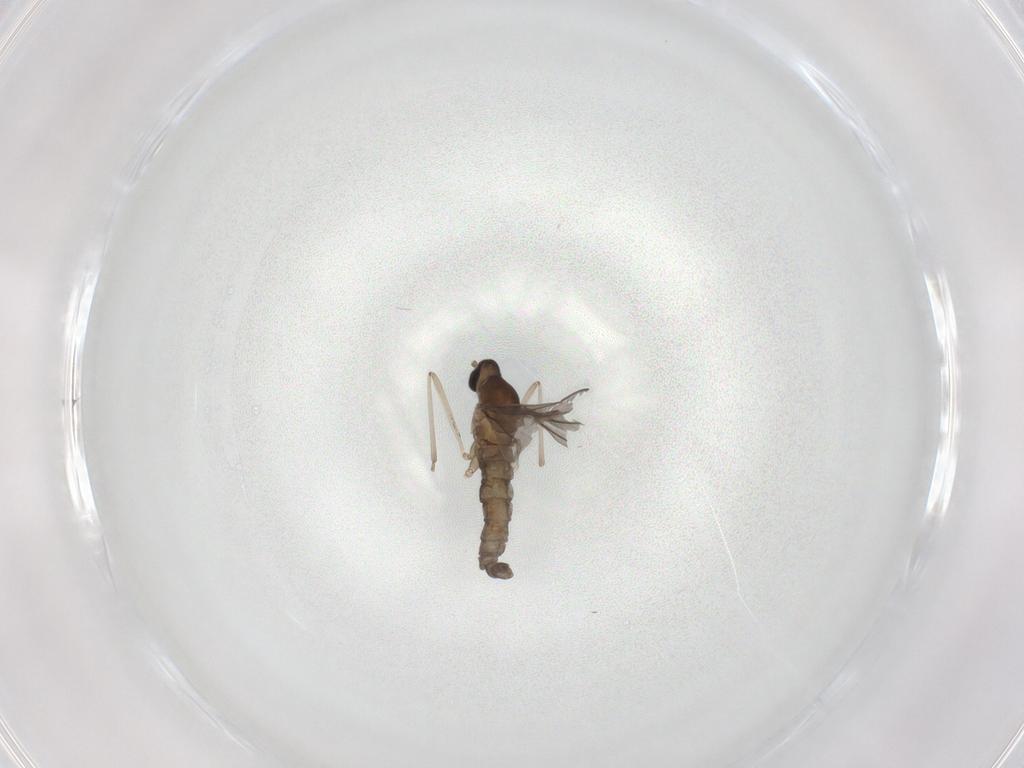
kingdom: Animalia
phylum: Arthropoda
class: Insecta
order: Diptera
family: Cecidomyiidae
